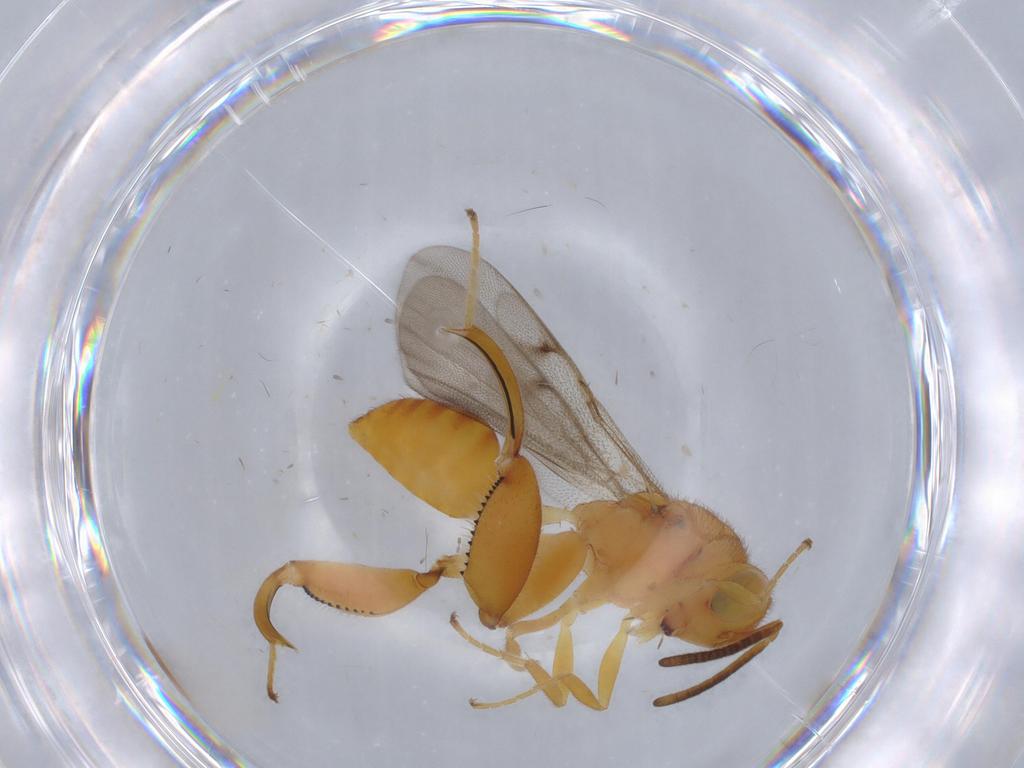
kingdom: Animalia
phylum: Arthropoda
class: Insecta
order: Hymenoptera
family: Chalcididae
